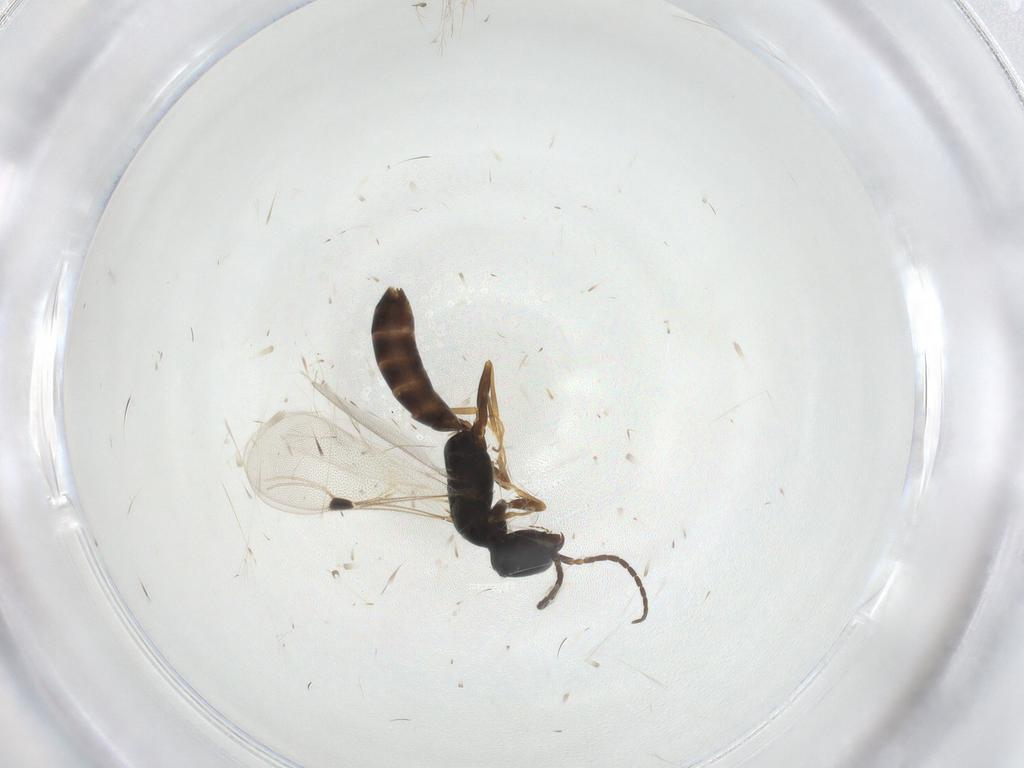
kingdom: Animalia
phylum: Arthropoda
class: Insecta
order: Hymenoptera
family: Bethylidae
